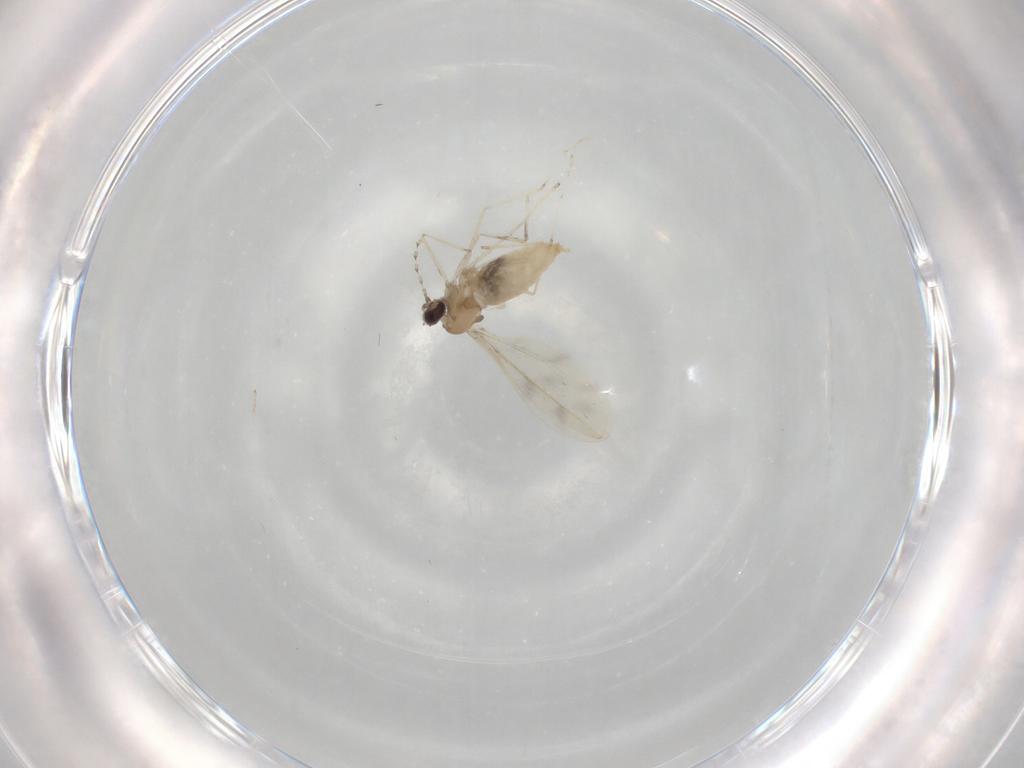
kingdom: Animalia
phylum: Arthropoda
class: Insecta
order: Diptera
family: Cecidomyiidae
